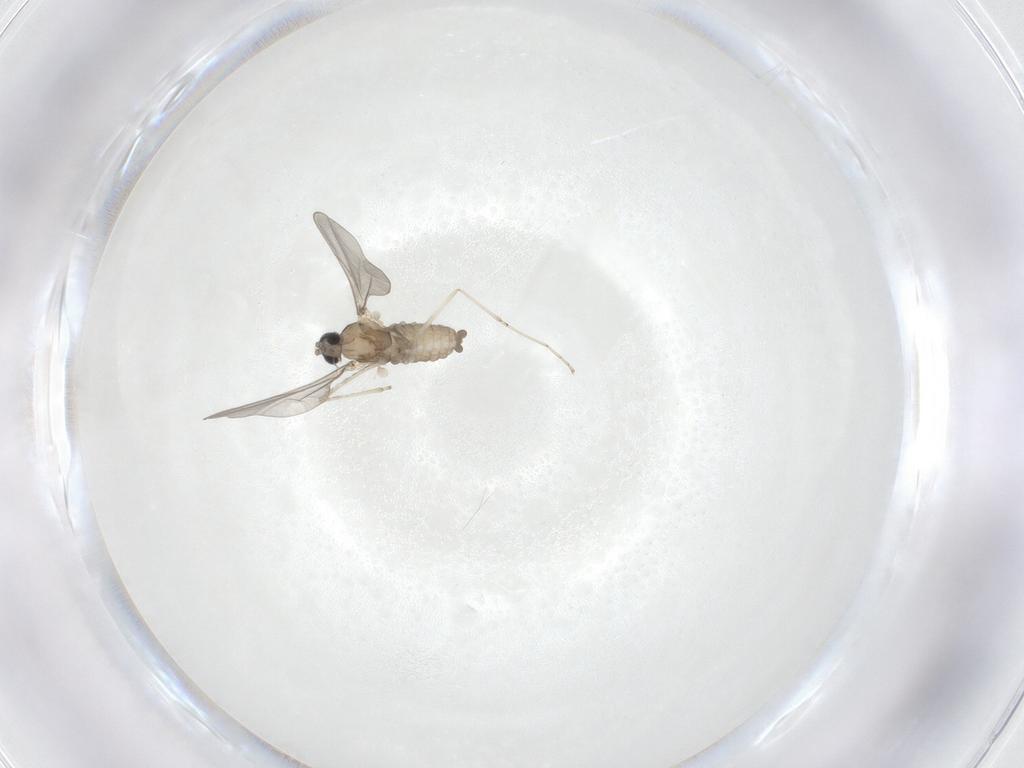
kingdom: Animalia
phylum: Arthropoda
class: Insecta
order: Diptera
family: Cecidomyiidae
